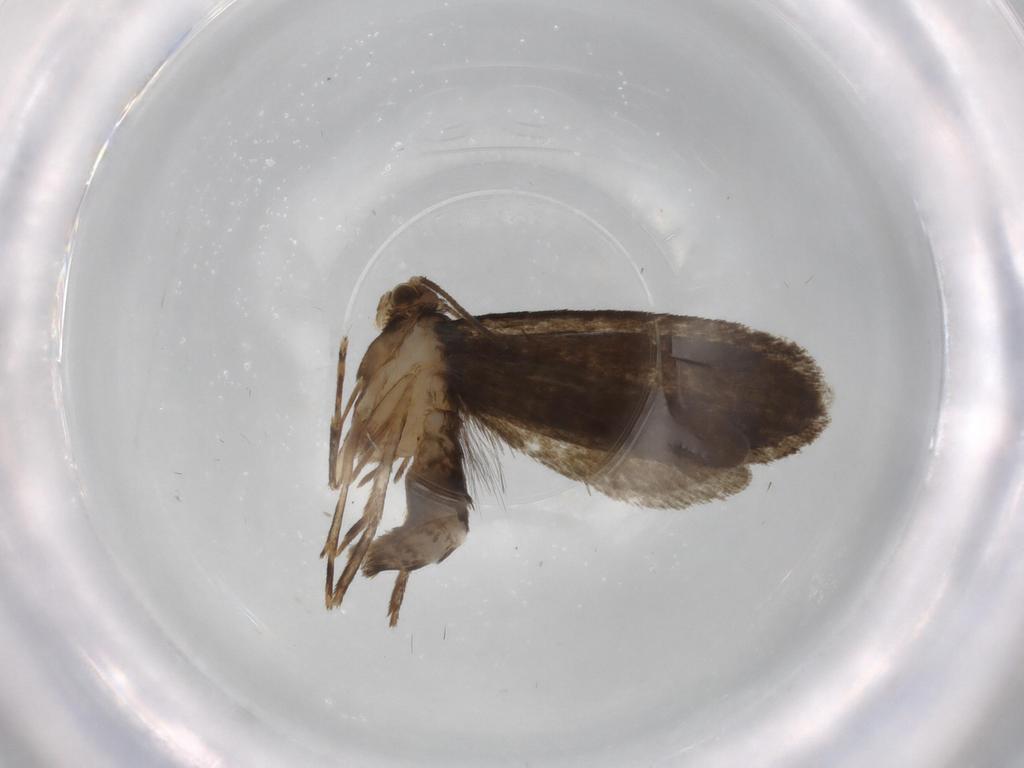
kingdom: Animalia
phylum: Arthropoda
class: Insecta
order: Lepidoptera
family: Tineidae
